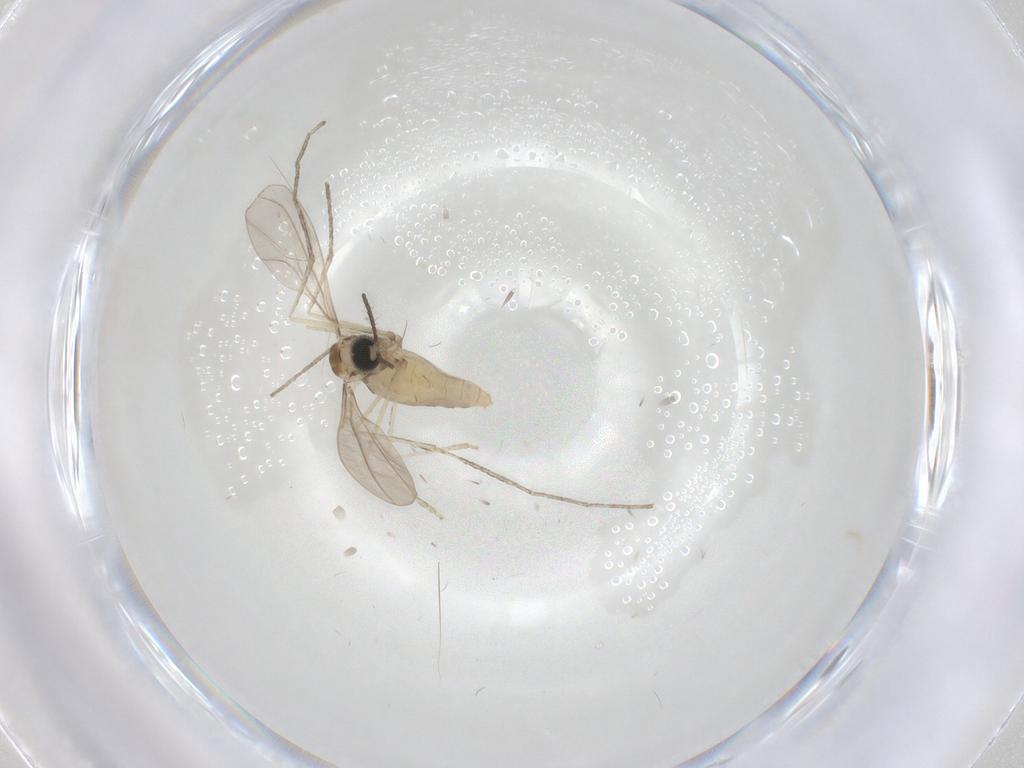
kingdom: Animalia
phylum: Arthropoda
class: Insecta
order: Diptera
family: Cecidomyiidae
